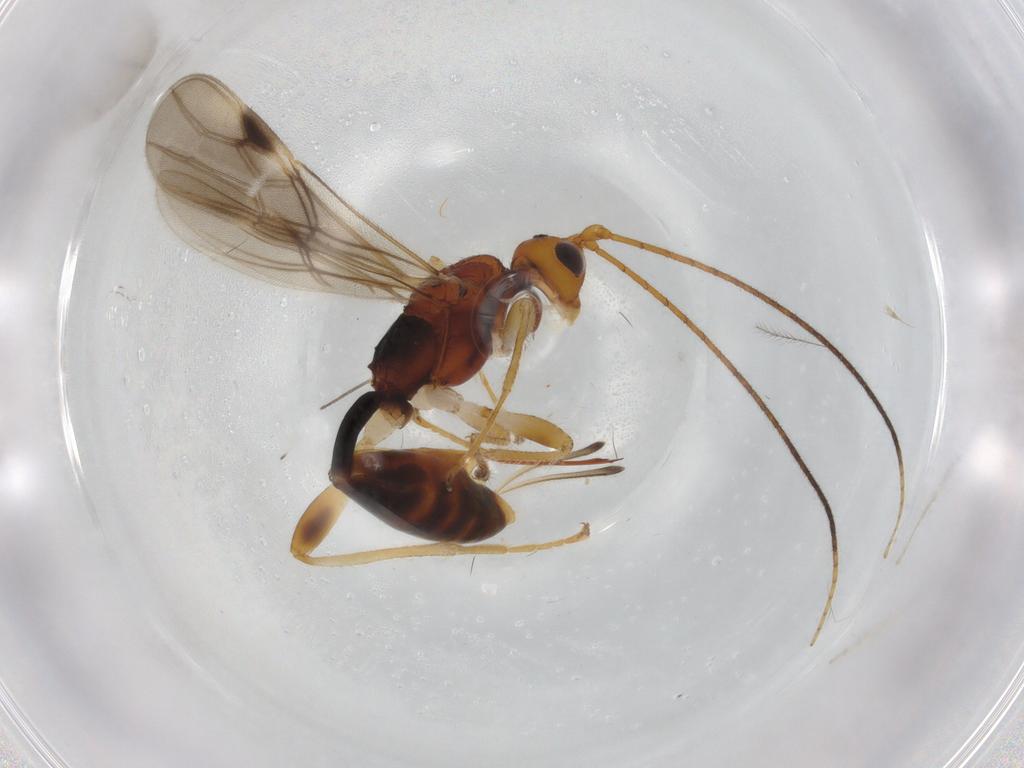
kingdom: Animalia
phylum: Arthropoda
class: Insecta
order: Hymenoptera
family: Braconidae
